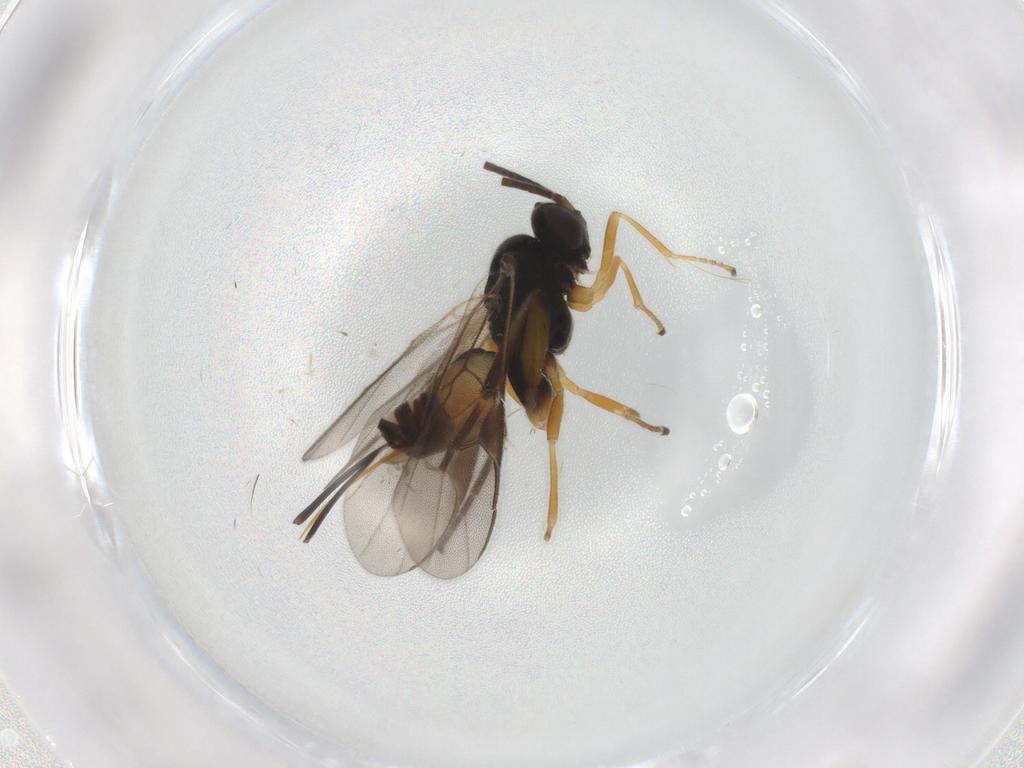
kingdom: Animalia
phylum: Arthropoda
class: Insecta
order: Hymenoptera
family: Braconidae
